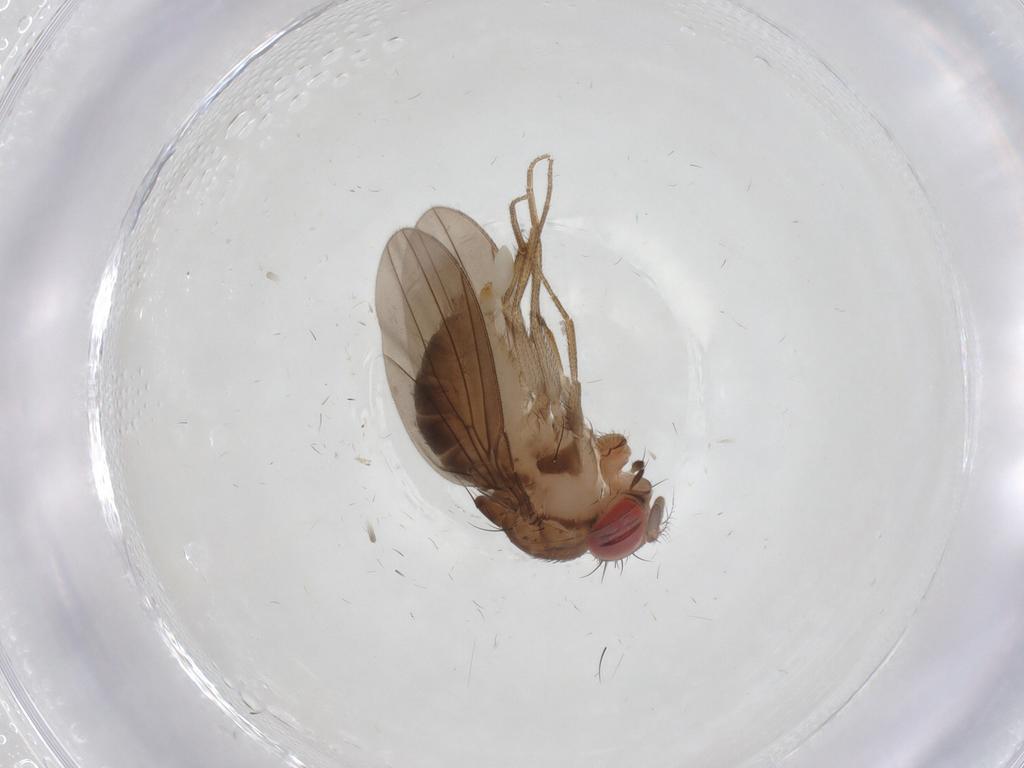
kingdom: Animalia
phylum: Arthropoda
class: Insecta
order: Diptera
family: Drosophilidae
